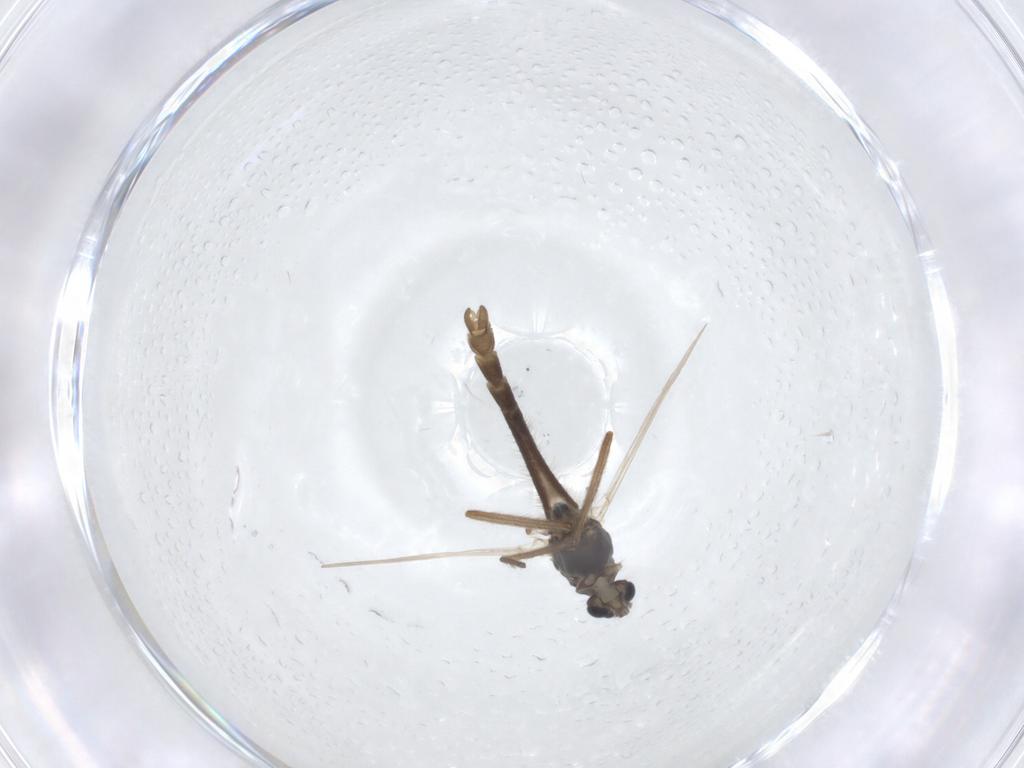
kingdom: Animalia
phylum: Arthropoda
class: Insecta
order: Diptera
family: Chironomidae
